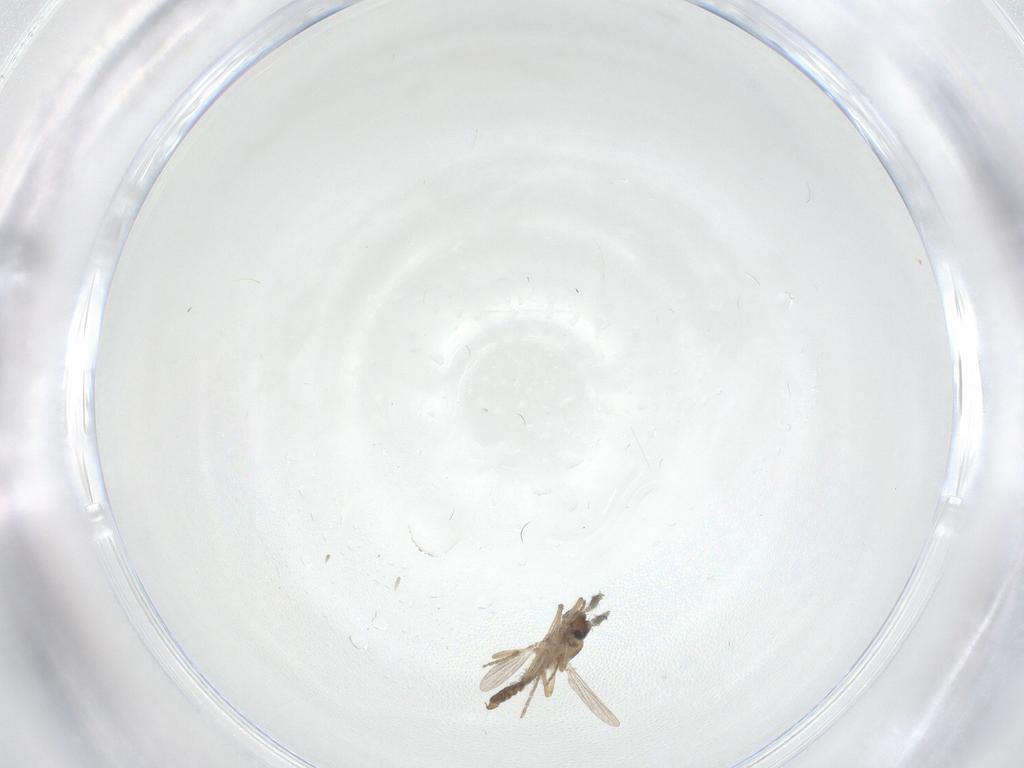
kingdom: Animalia
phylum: Arthropoda
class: Insecta
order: Diptera
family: Ceratopogonidae
